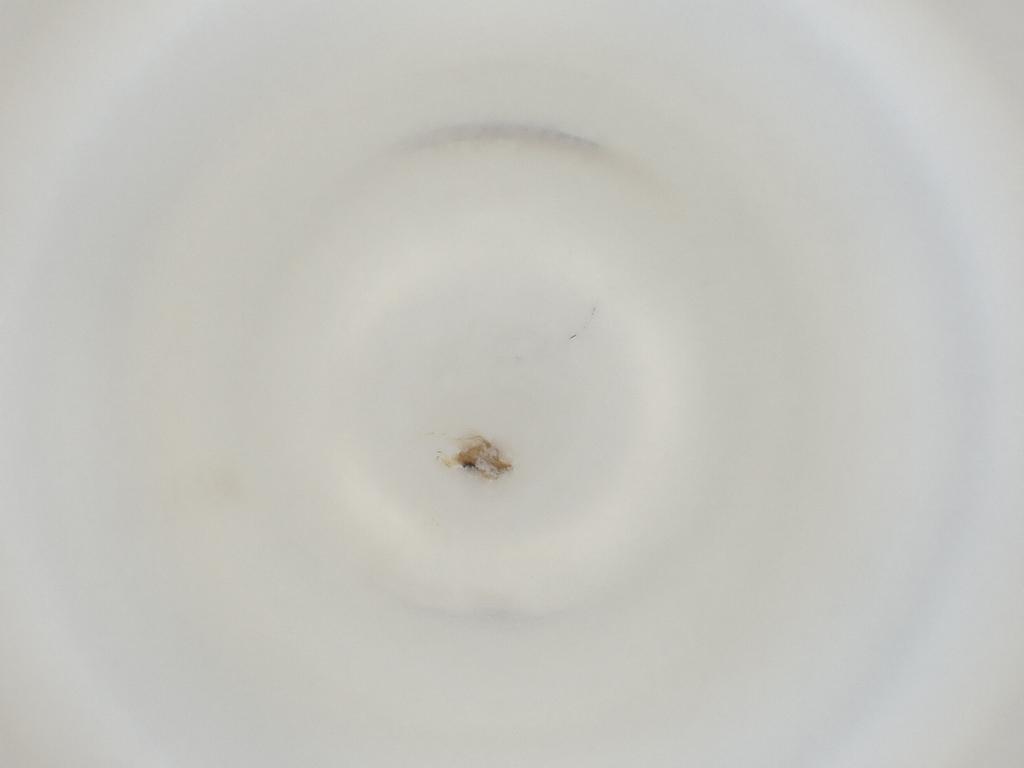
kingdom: Animalia
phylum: Arthropoda
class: Insecta
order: Diptera
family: Cecidomyiidae
